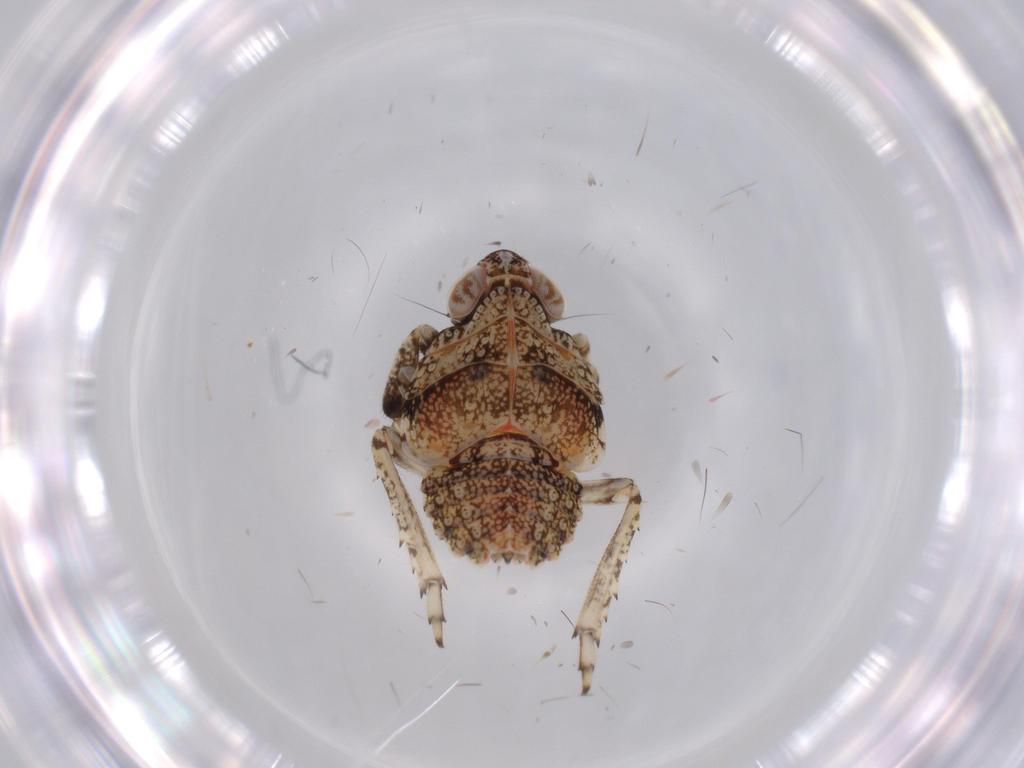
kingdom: Animalia
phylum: Arthropoda
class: Insecta
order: Hemiptera
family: Issidae
